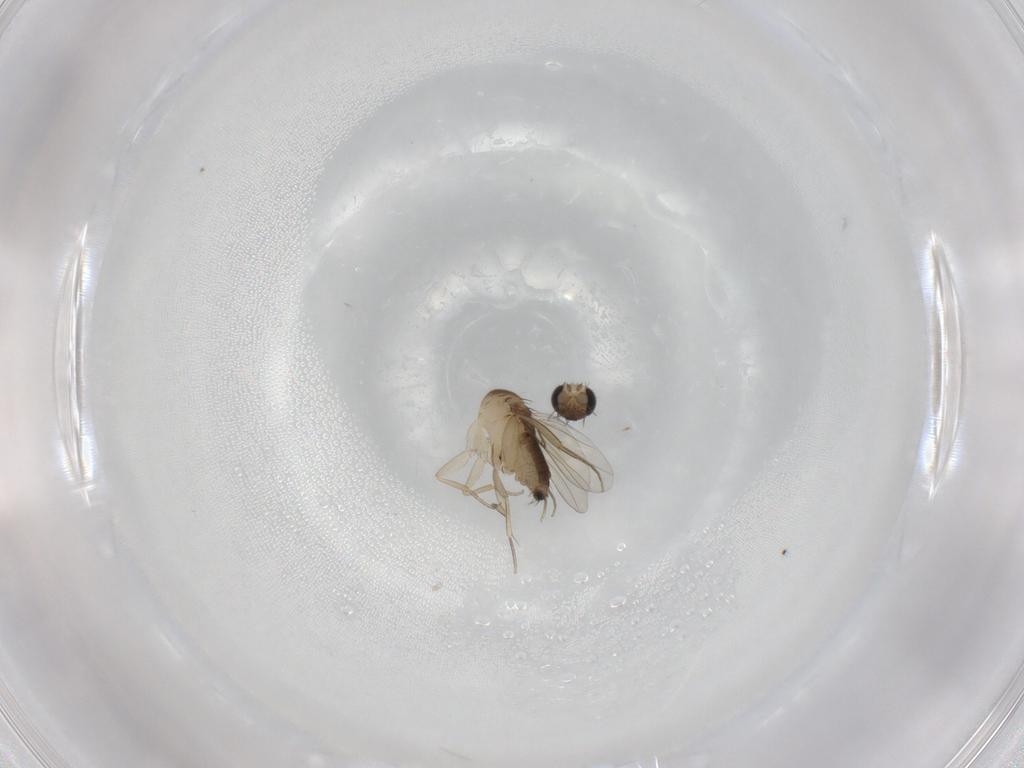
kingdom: Animalia
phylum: Arthropoda
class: Insecta
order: Diptera
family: Phoridae
